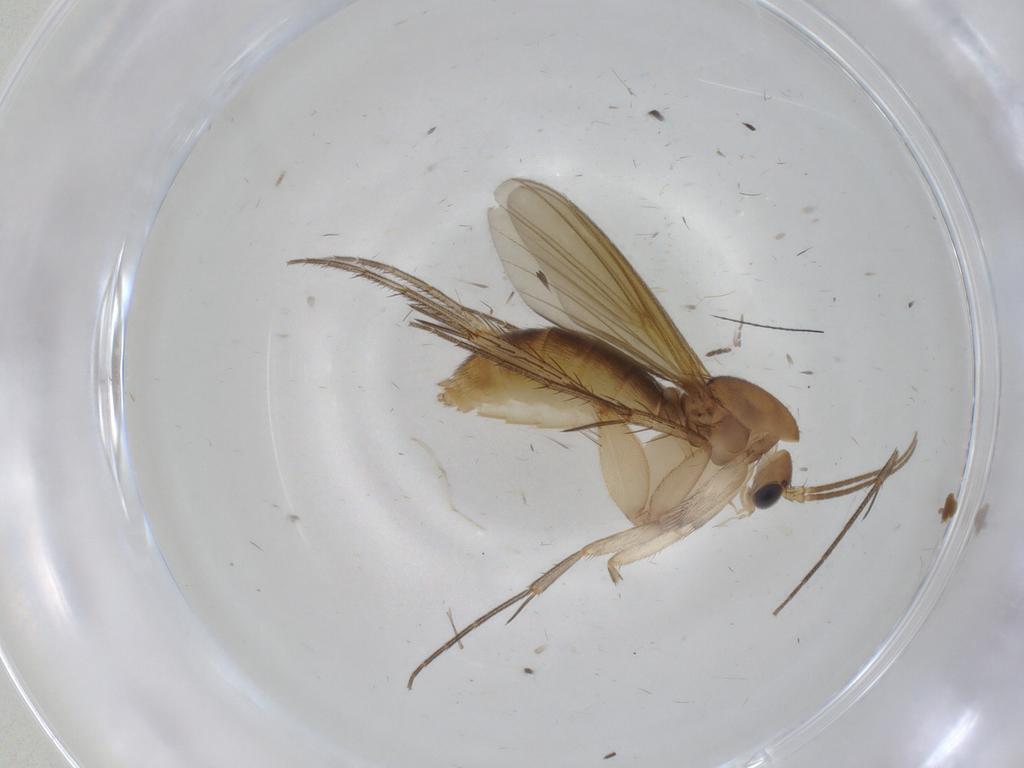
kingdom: Animalia
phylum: Arthropoda
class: Insecta
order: Diptera
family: Mycetophilidae
